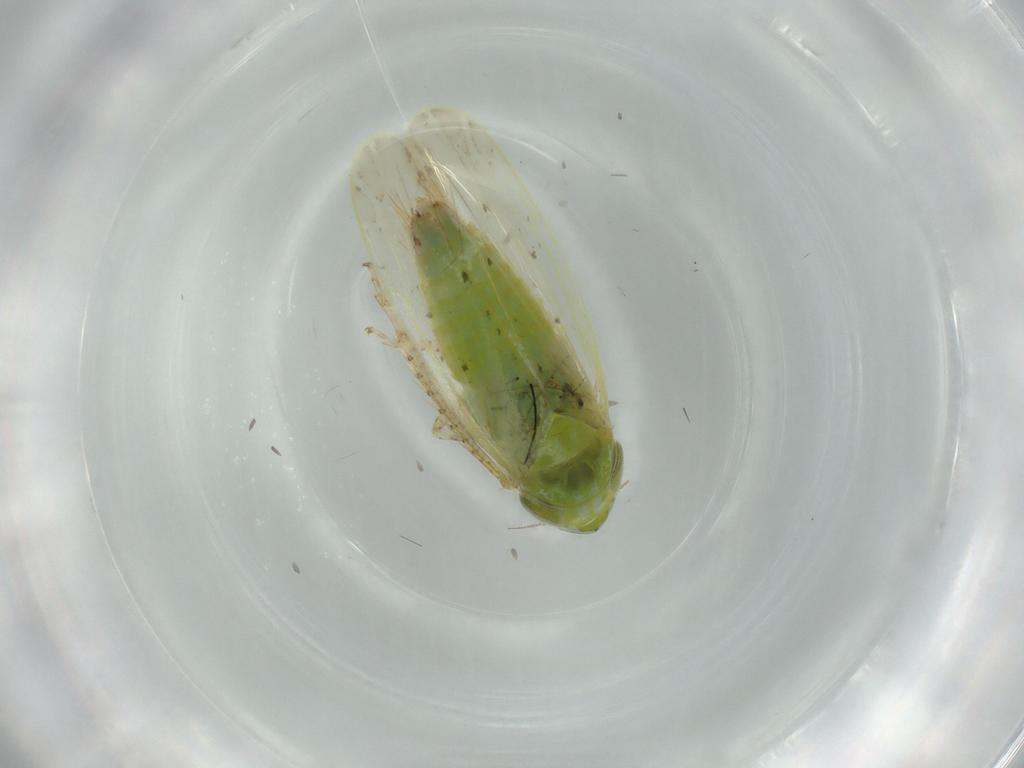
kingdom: Animalia
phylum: Arthropoda
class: Insecta
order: Hemiptera
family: Cicadellidae
